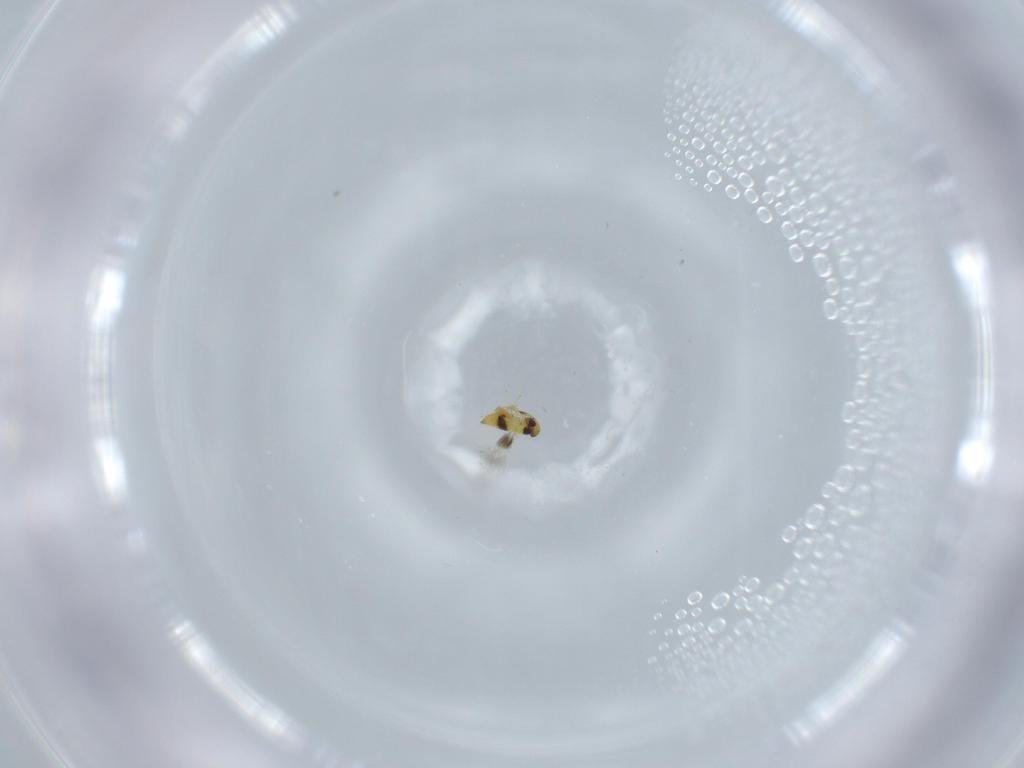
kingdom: Animalia
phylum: Arthropoda
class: Insecta
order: Hymenoptera
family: Signiphoridae
